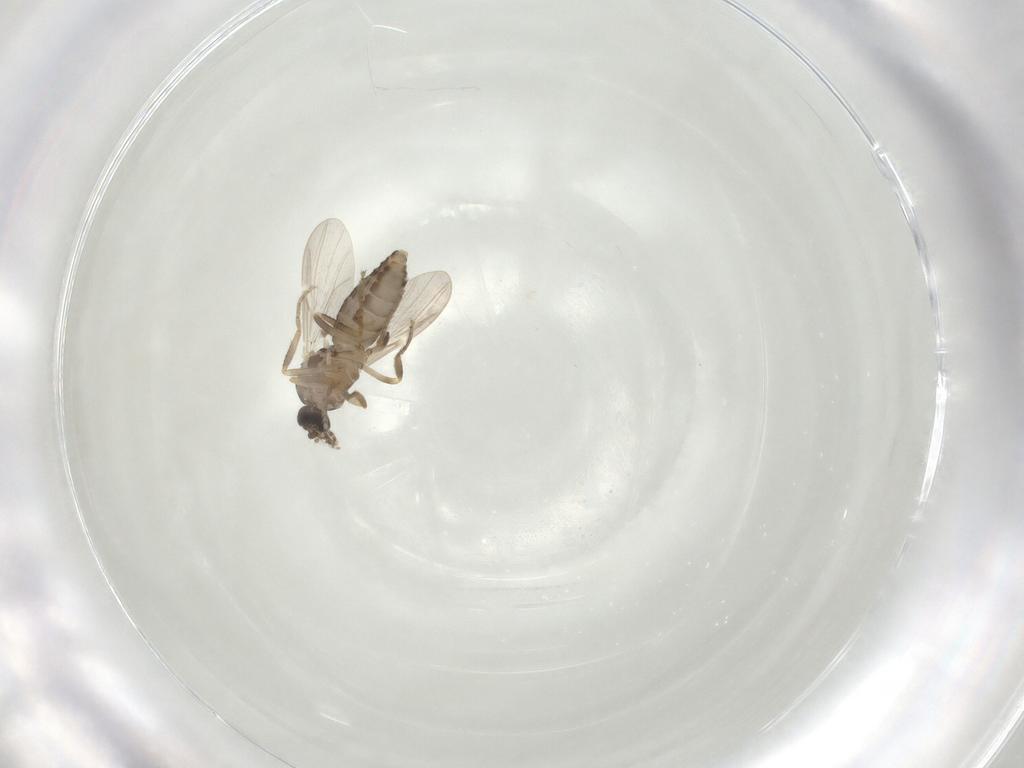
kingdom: Animalia
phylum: Arthropoda
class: Insecta
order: Diptera
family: Ceratopogonidae
